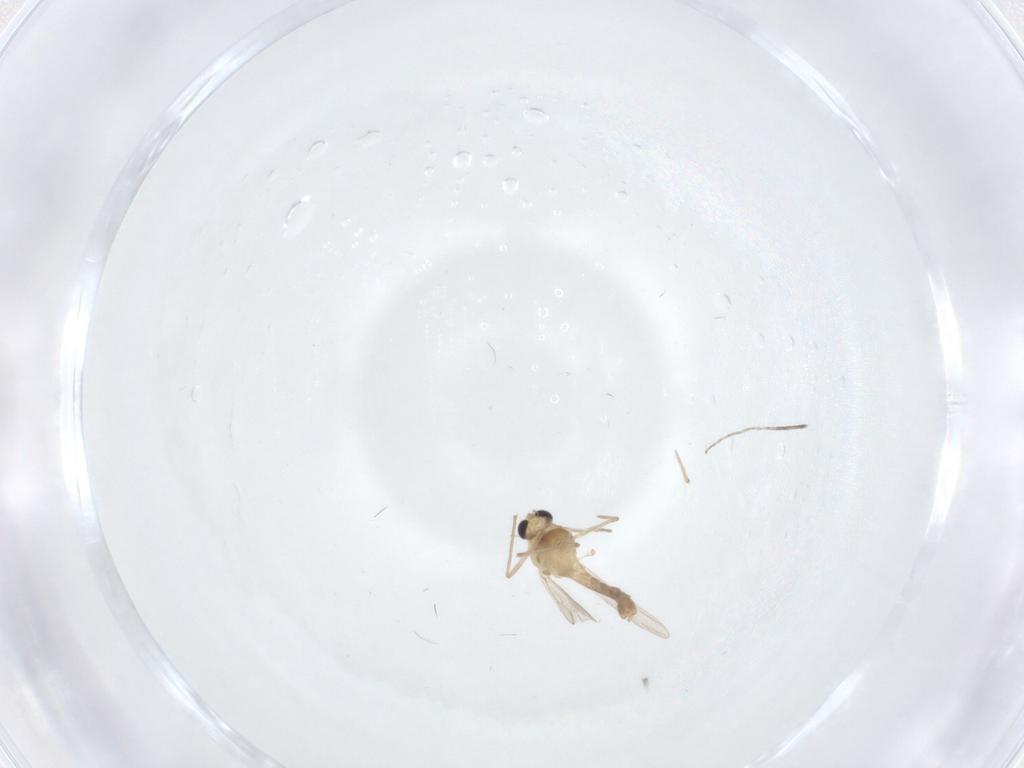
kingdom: Animalia
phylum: Arthropoda
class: Insecta
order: Diptera
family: Chironomidae
